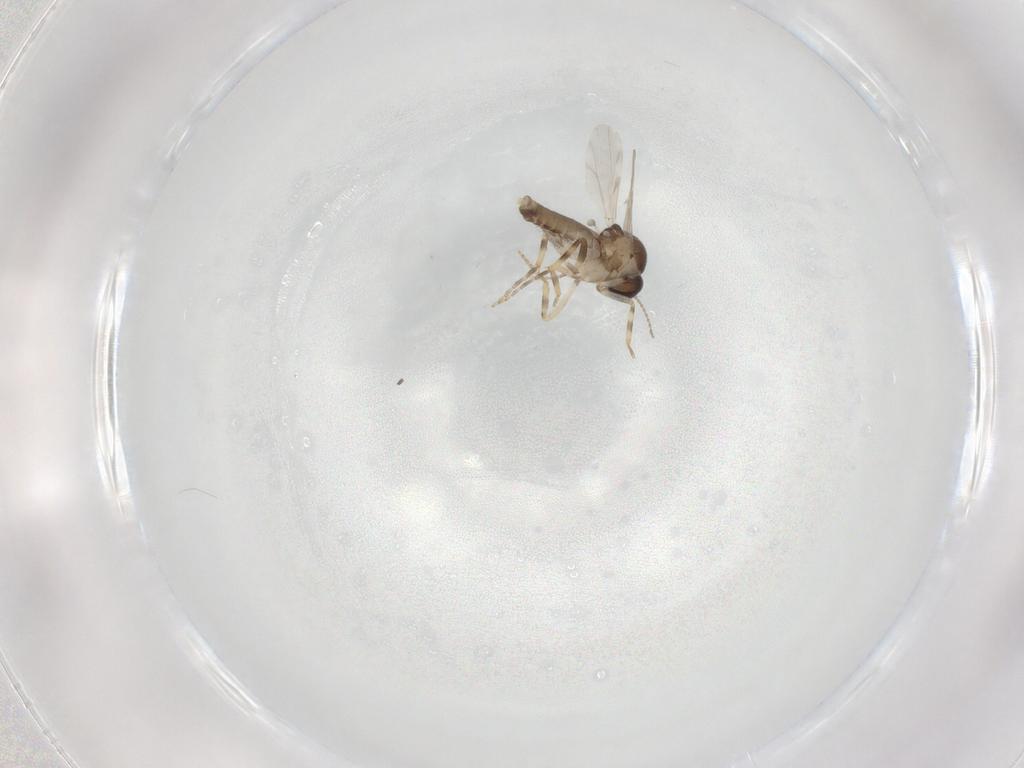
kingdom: Animalia
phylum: Arthropoda
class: Insecta
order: Diptera
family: Ceratopogonidae
